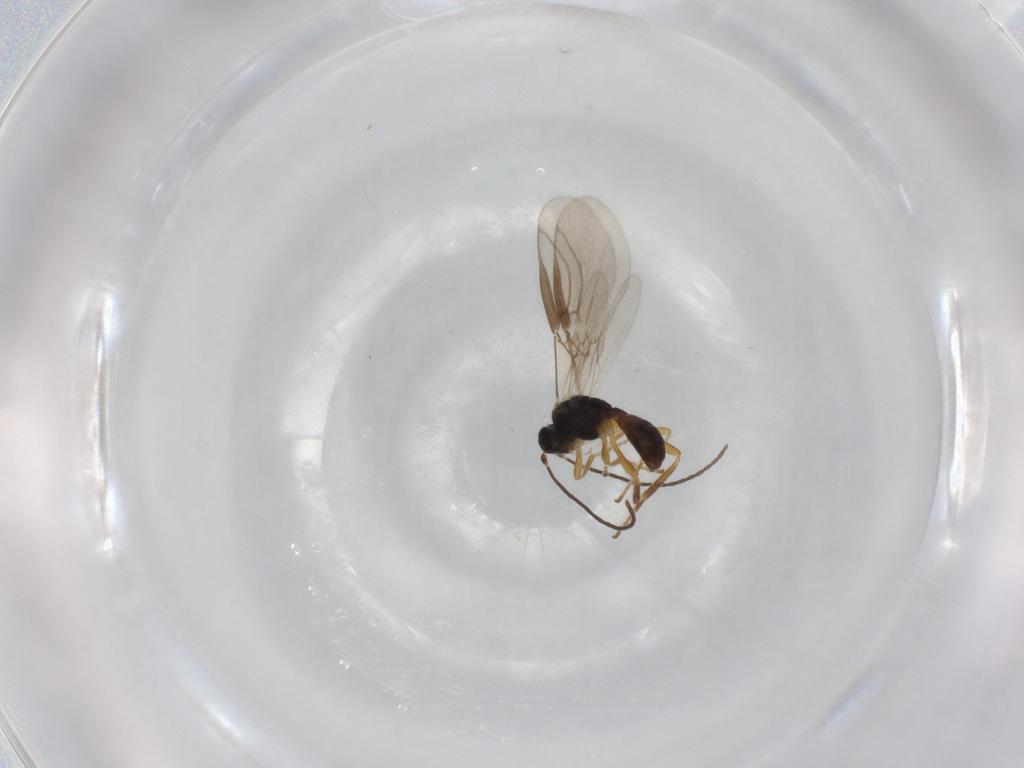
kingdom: Animalia
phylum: Arthropoda
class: Insecta
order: Hymenoptera
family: Braconidae
